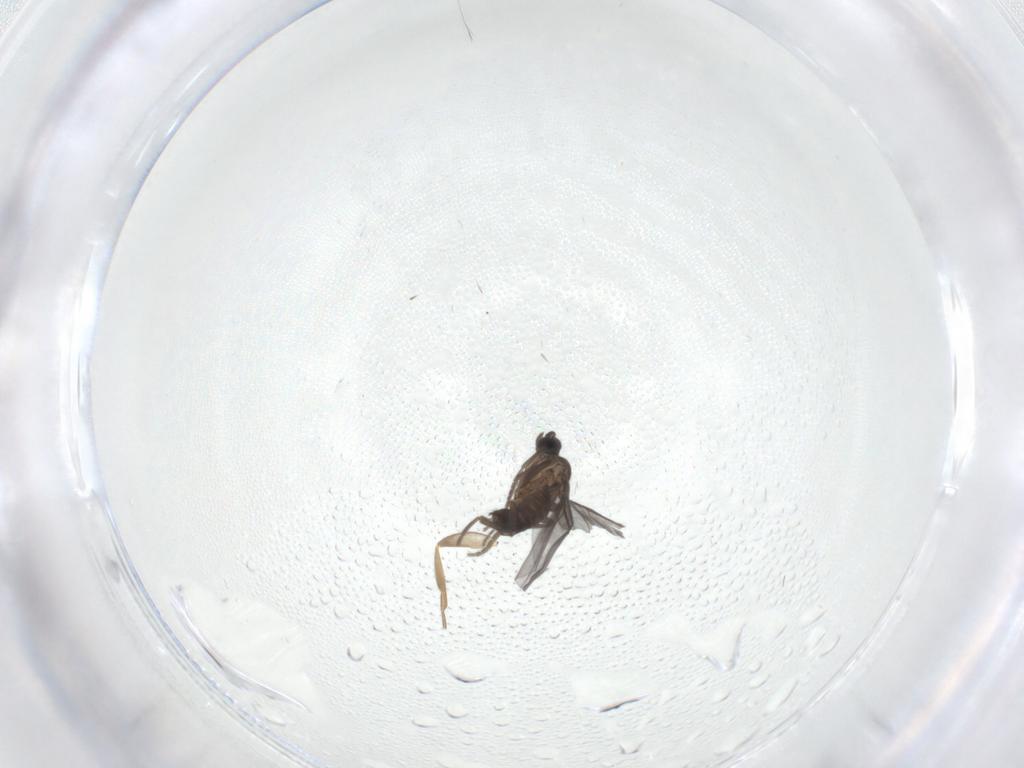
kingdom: Animalia
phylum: Arthropoda
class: Insecta
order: Diptera
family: Phoridae
